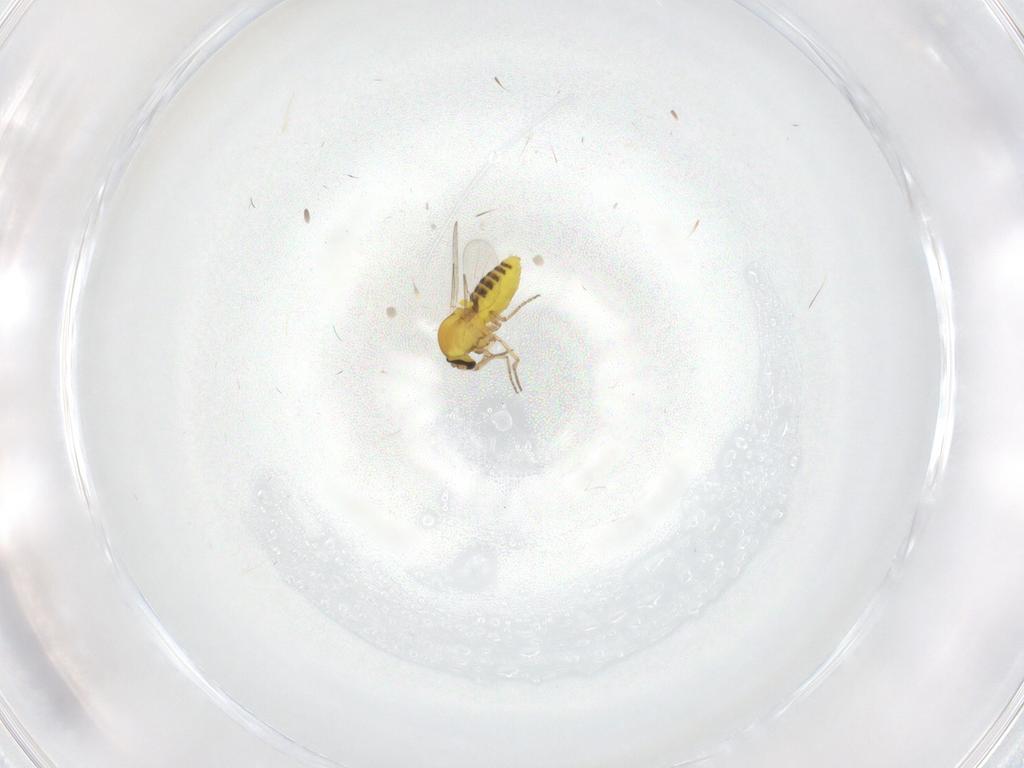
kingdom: Animalia
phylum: Arthropoda
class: Insecta
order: Diptera
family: Ceratopogonidae
